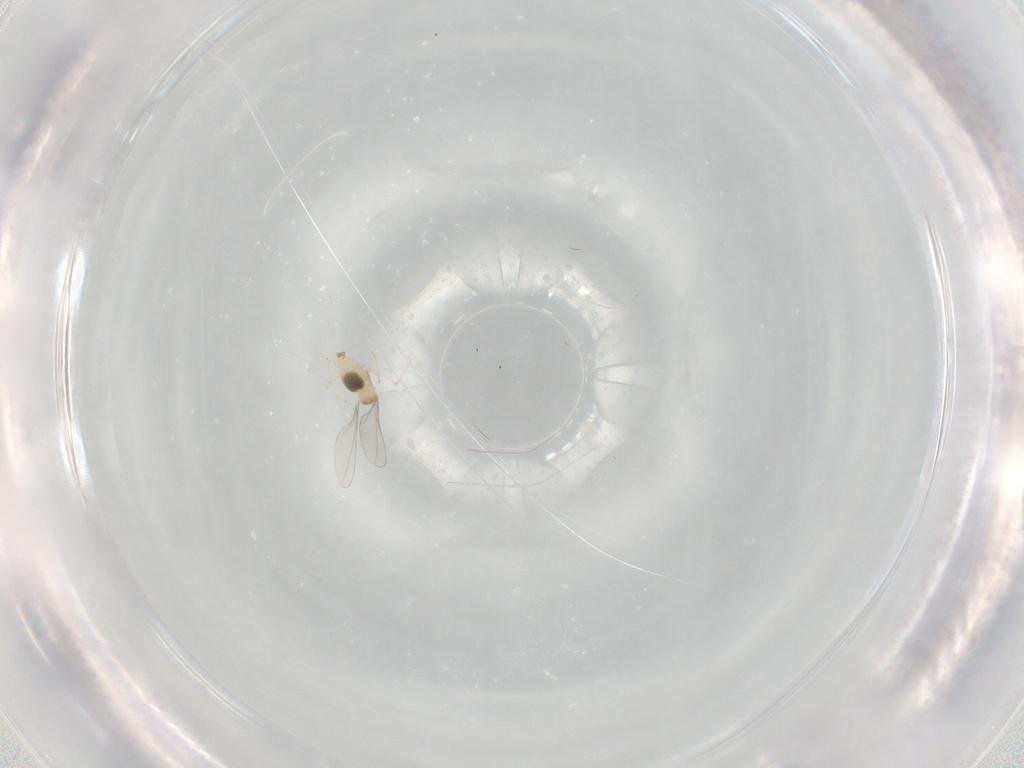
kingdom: Animalia
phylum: Arthropoda
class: Insecta
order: Diptera
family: Cecidomyiidae
